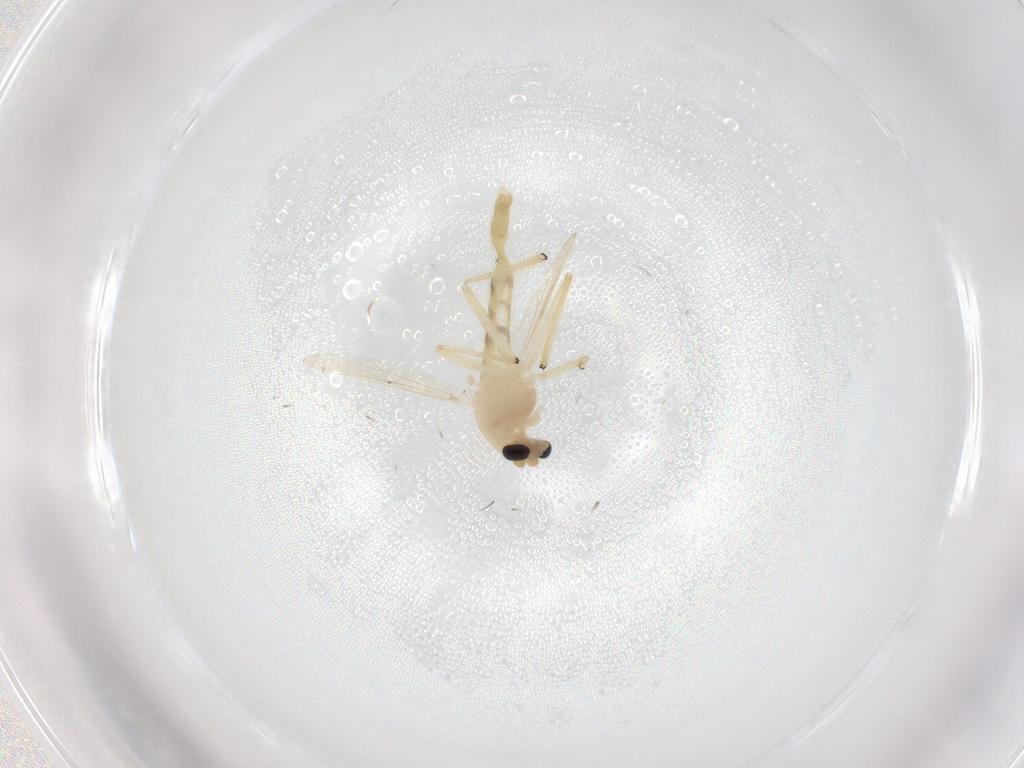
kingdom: Animalia
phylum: Arthropoda
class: Insecta
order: Diptera
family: Chironomidae
